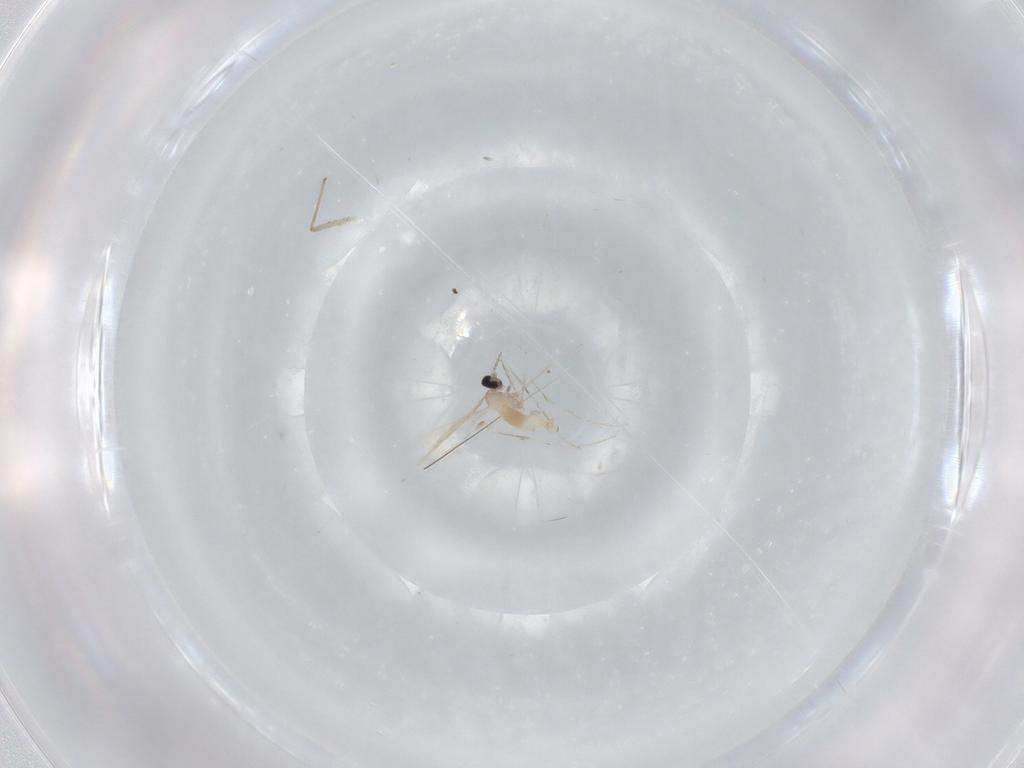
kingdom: Animalia
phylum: Arthropoda
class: Insecta
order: Diptera
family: Cecidomyiidae
